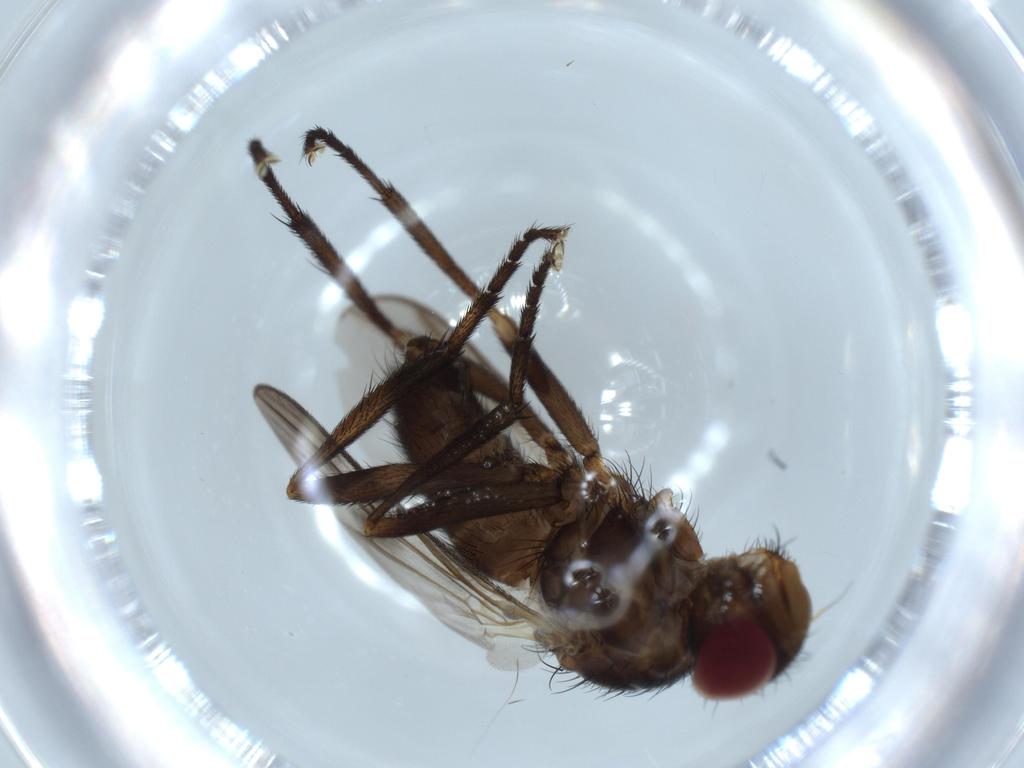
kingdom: Animalia
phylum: Arthropoda
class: Insecta
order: Diptera
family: Calliphoridae
